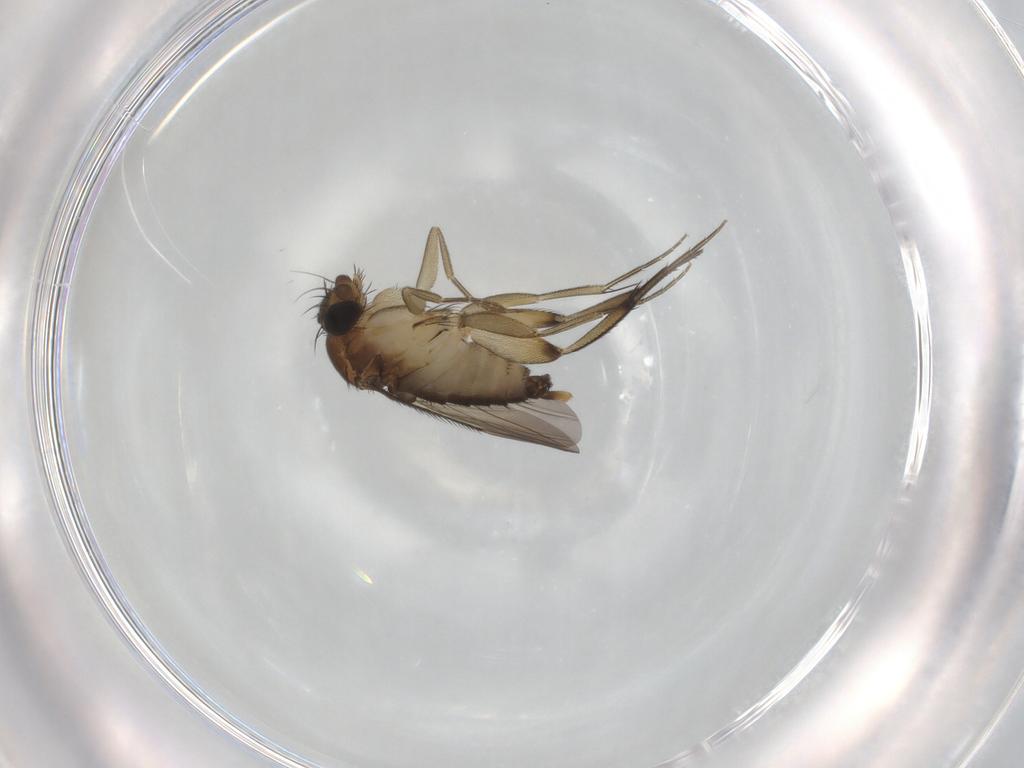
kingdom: Animalia
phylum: Arthropoda
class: Insecta
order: Diptera
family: Phoridae
